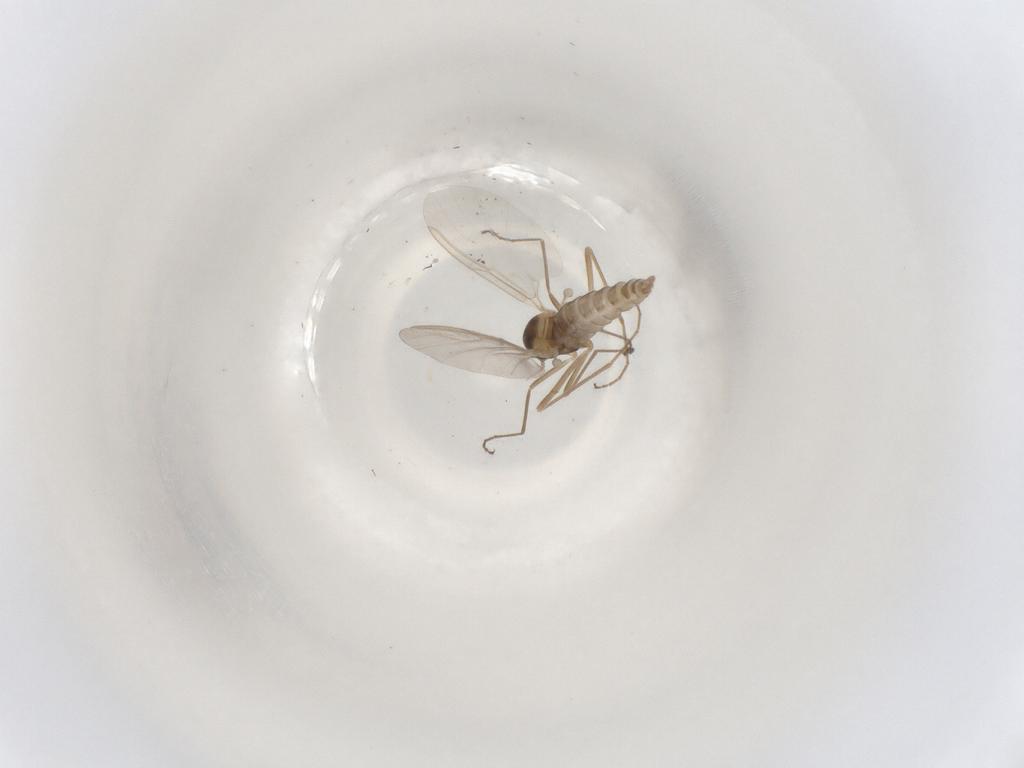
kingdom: Animalia
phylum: Arthropoda
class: Insecta
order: Diptera
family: Cecidomyiidae
